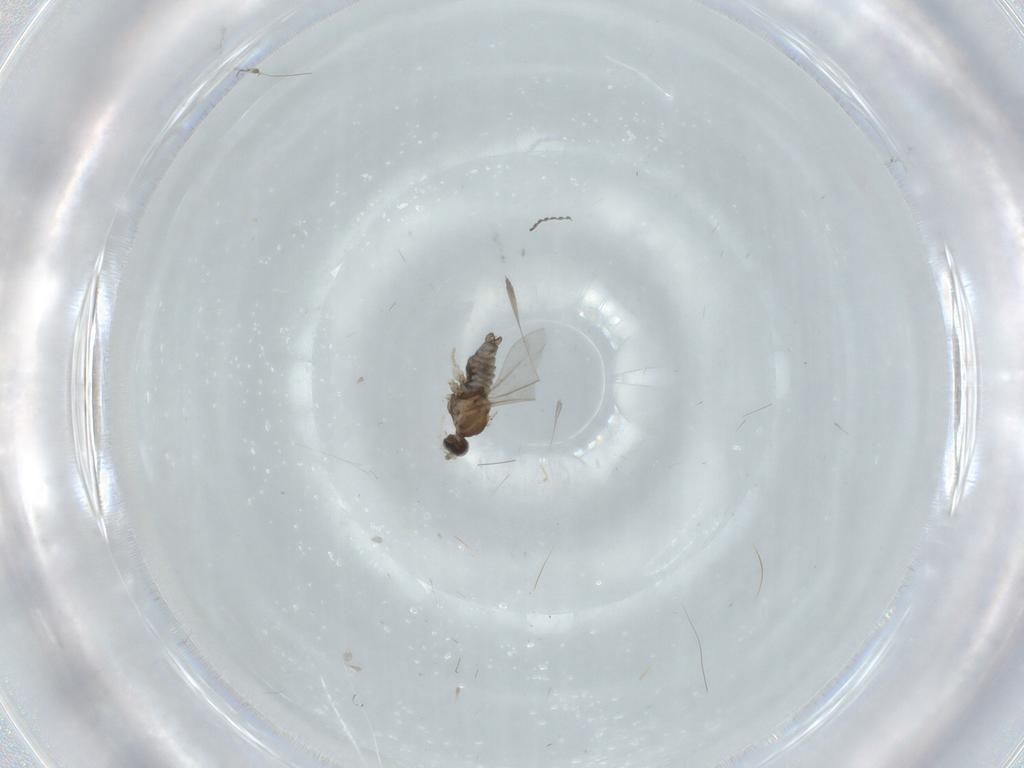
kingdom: Animalia
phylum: Arthropoda
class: Insecta
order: Diptera
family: Cecidomyiidae
